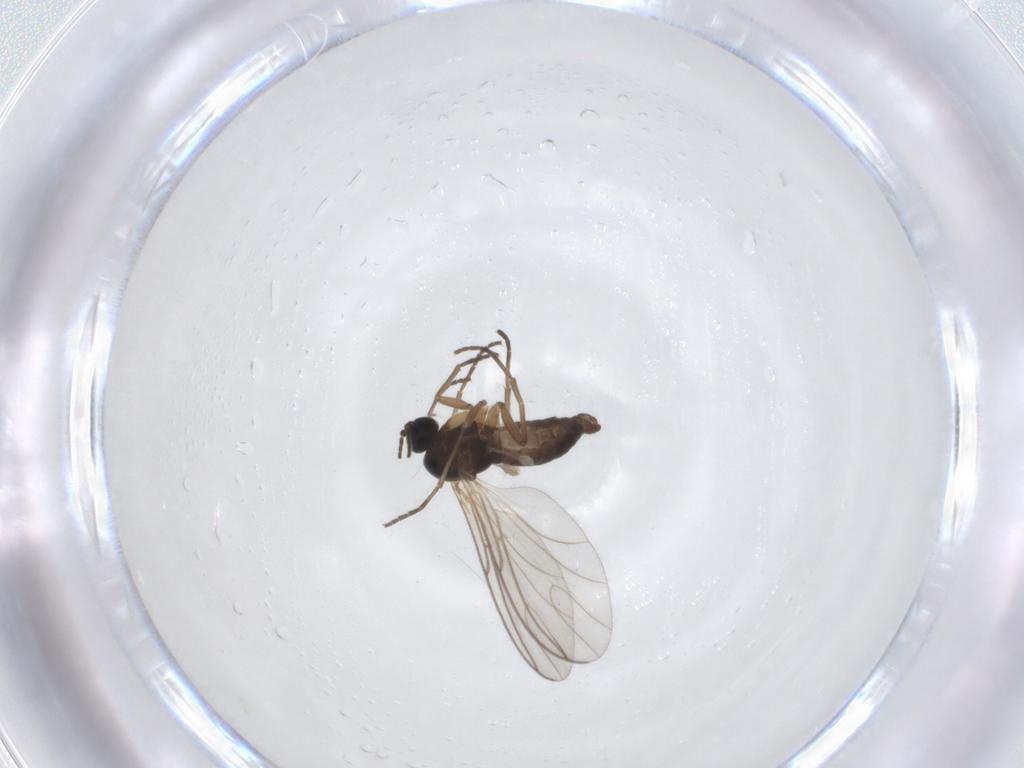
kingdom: Animalia
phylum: Arthropoda
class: Insecta
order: Diptera
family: Sciaridae
